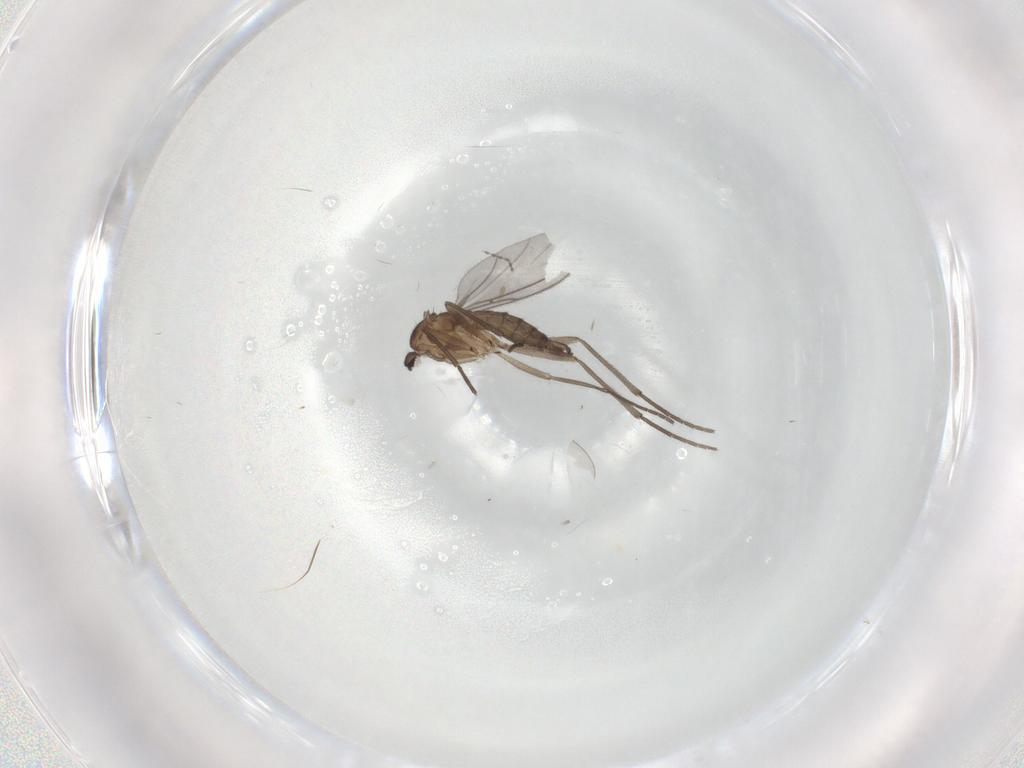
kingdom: Animalia
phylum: Arthropoda
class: Insecta
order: Diptera
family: Sciaridae
